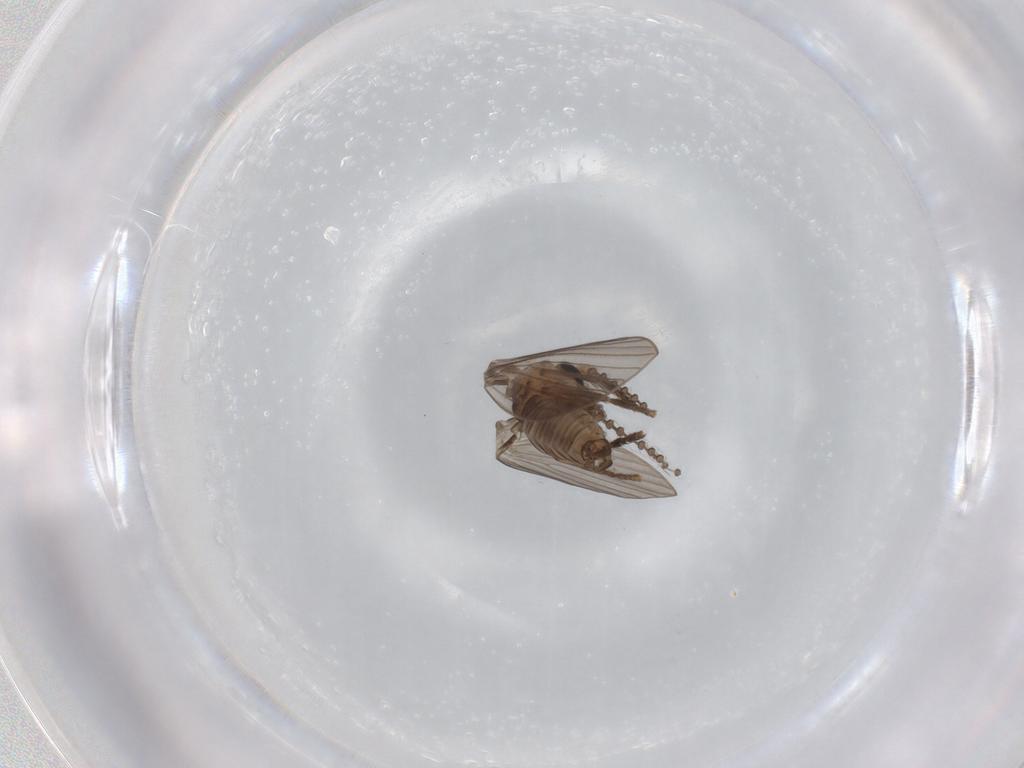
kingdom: Animalia
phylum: Arthropoda
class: Insecta
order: Diptera
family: Psychodidae
